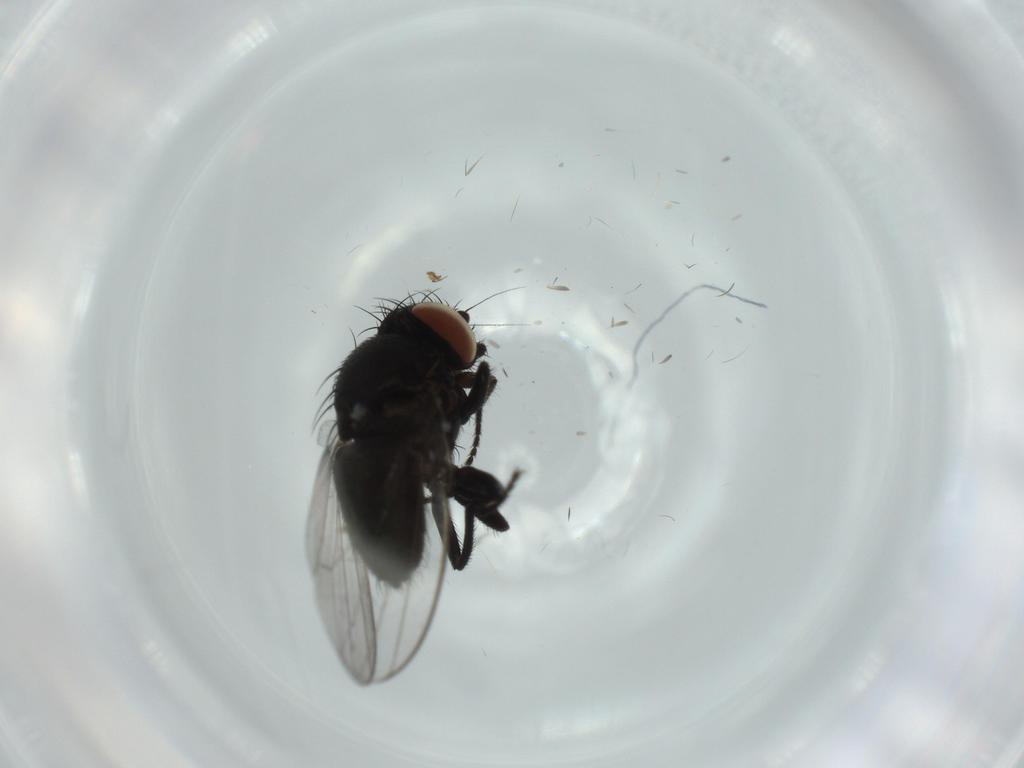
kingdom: Animalia
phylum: Arthropoda
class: Insecta
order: Diptera
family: Milichiidae
